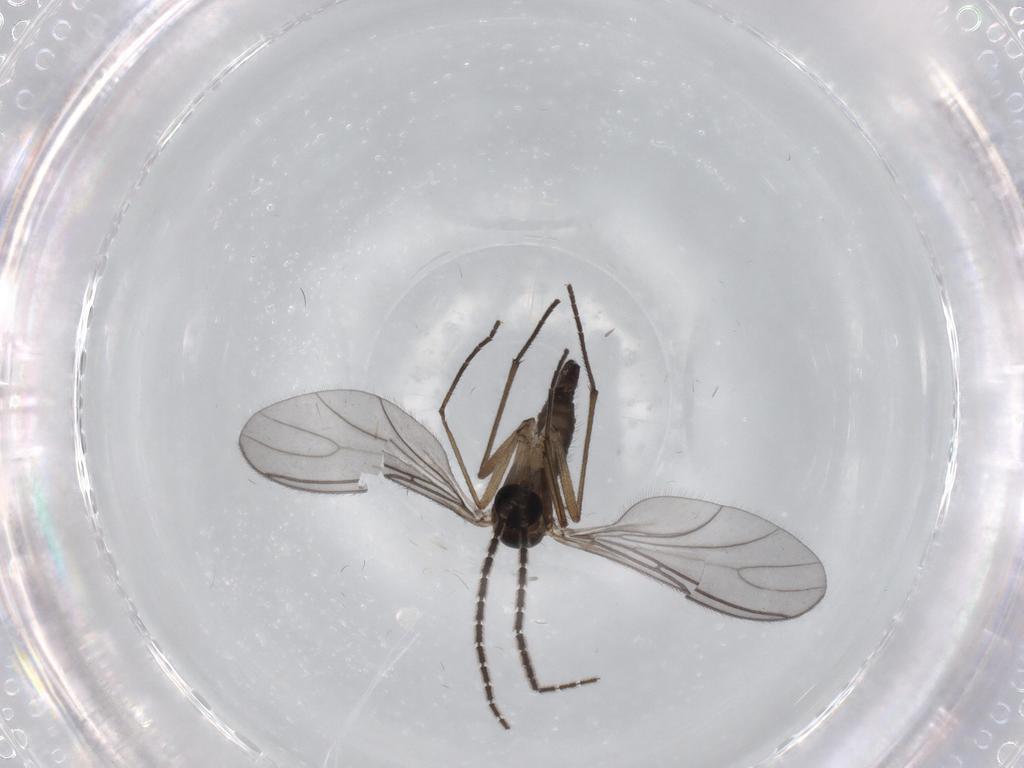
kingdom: Animalia
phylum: Arthropoda
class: Insecta
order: Diptera
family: Sciaridae
